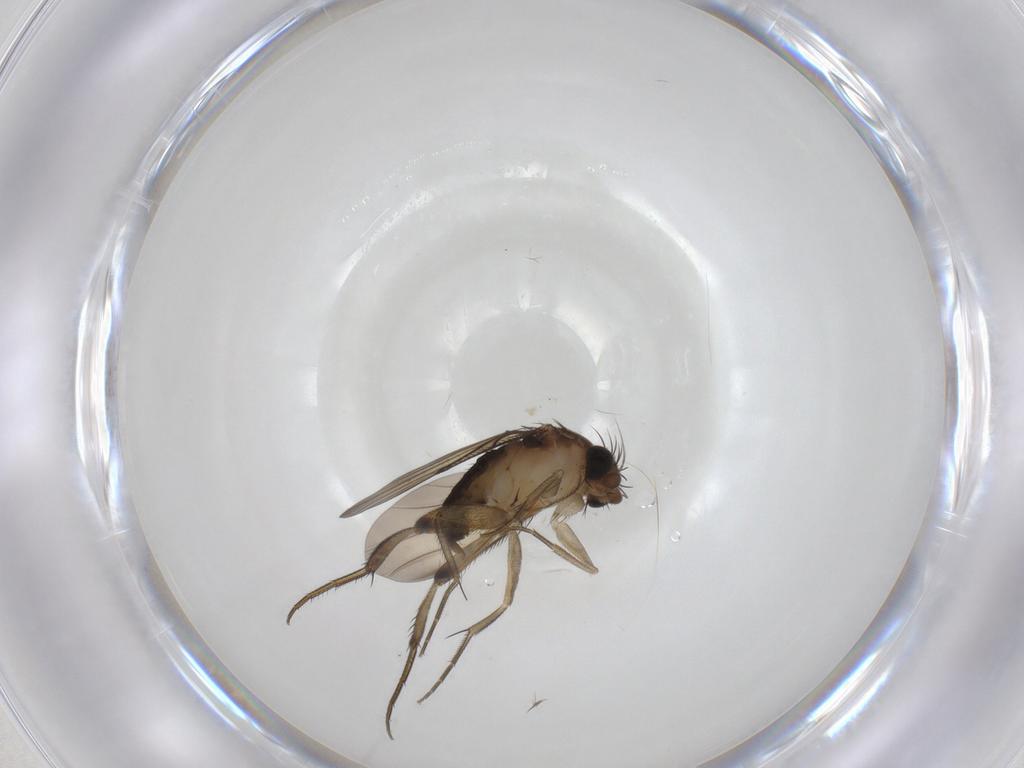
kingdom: Animalia
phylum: Arthropoda
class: Insecta
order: Diptera
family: Chironomidae
